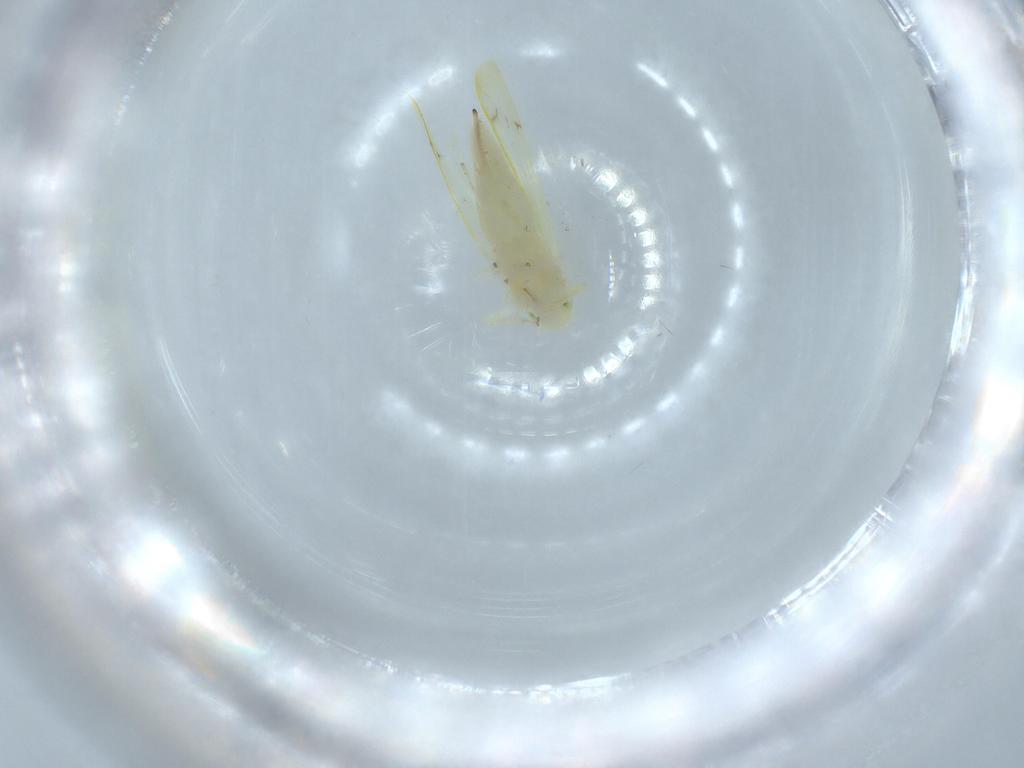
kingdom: Animalia
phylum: Arthropoda
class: Insecta
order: Hemiptera
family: Cicadellidae
